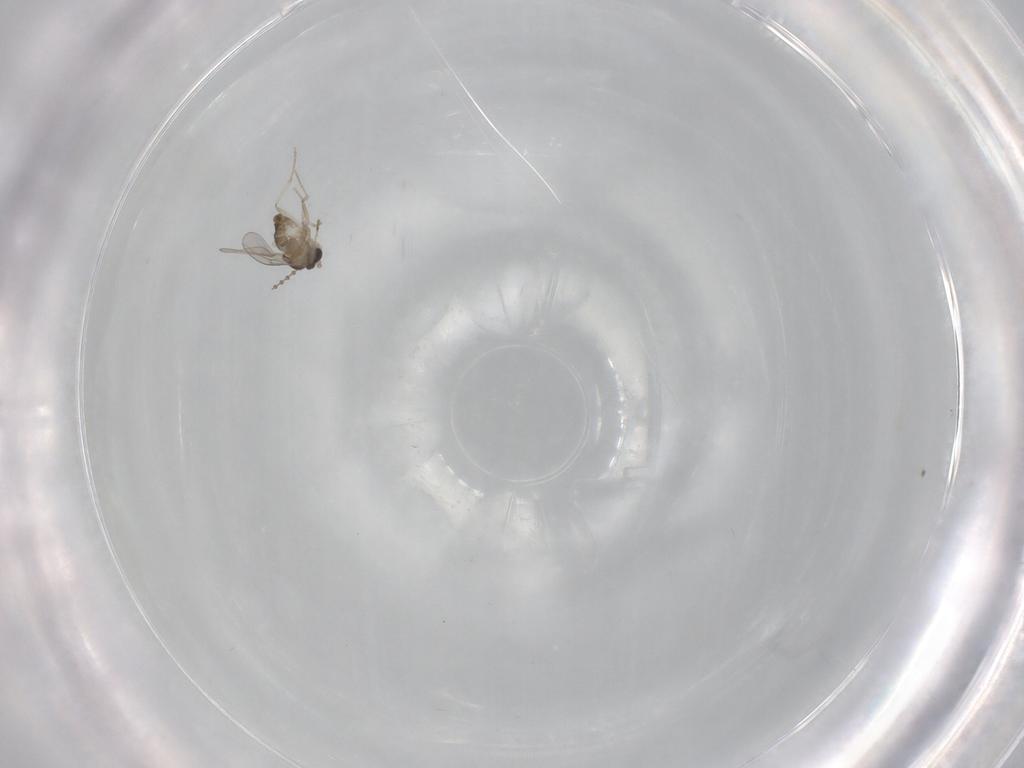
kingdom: Animalia
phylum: Arthropoda
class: Insecta
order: Diptera
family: Cecidomyiidae
